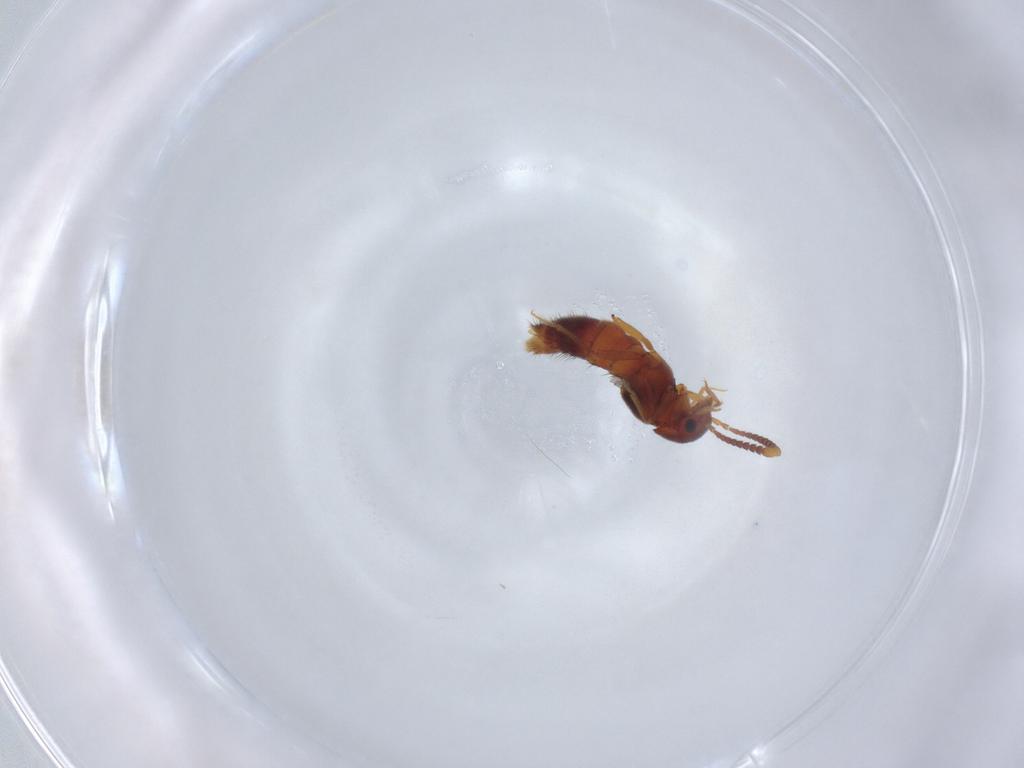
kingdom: Animalia
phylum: Arthropoda
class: Insecta
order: Coleoptera
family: Staphylinidae
